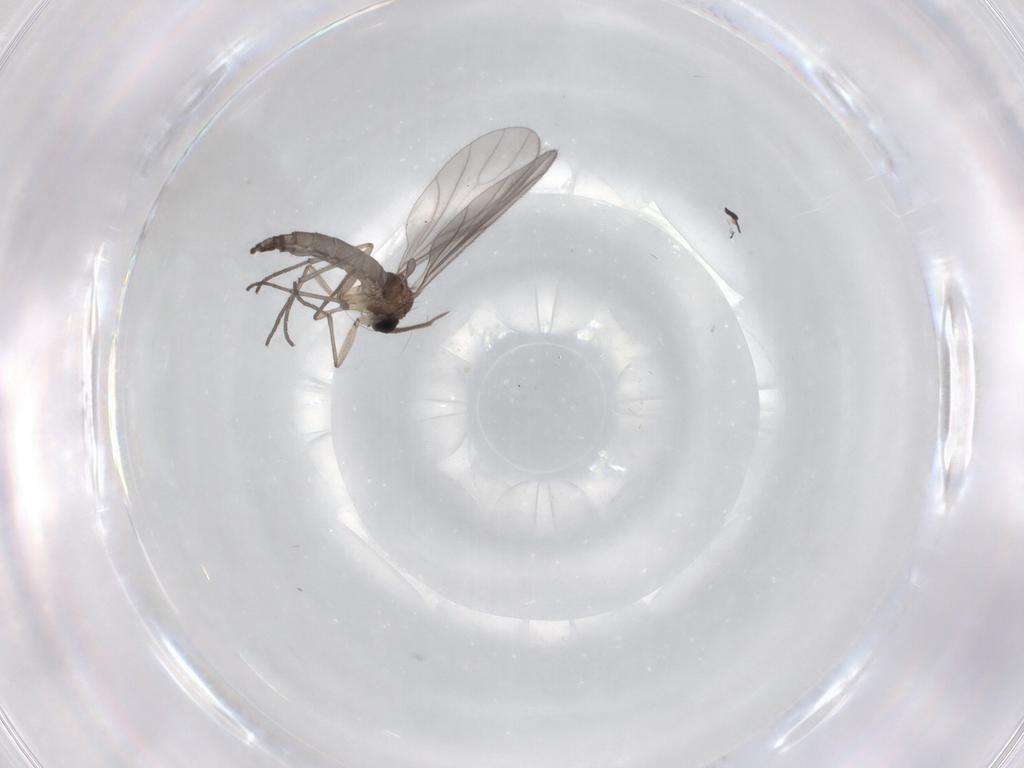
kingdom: Animalia
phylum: Arthropoda
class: Insecta
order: Diptera
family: Sciaridae
